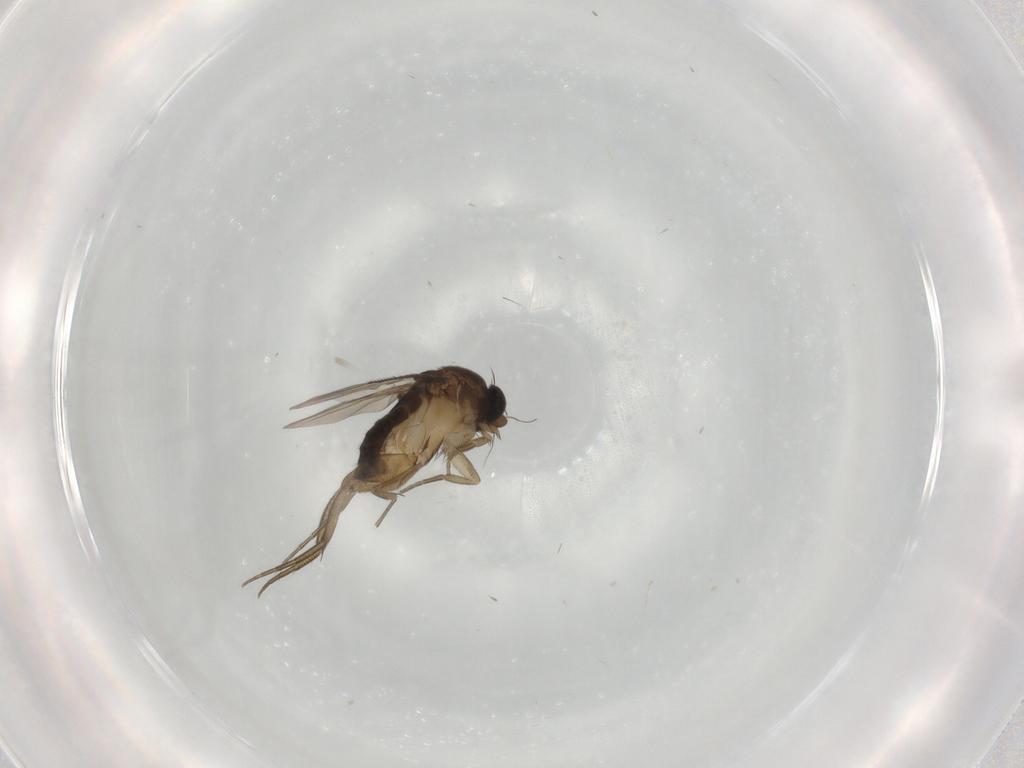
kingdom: Animalia
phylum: Arthropoda
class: Insecta
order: Diptera
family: Phoridae
